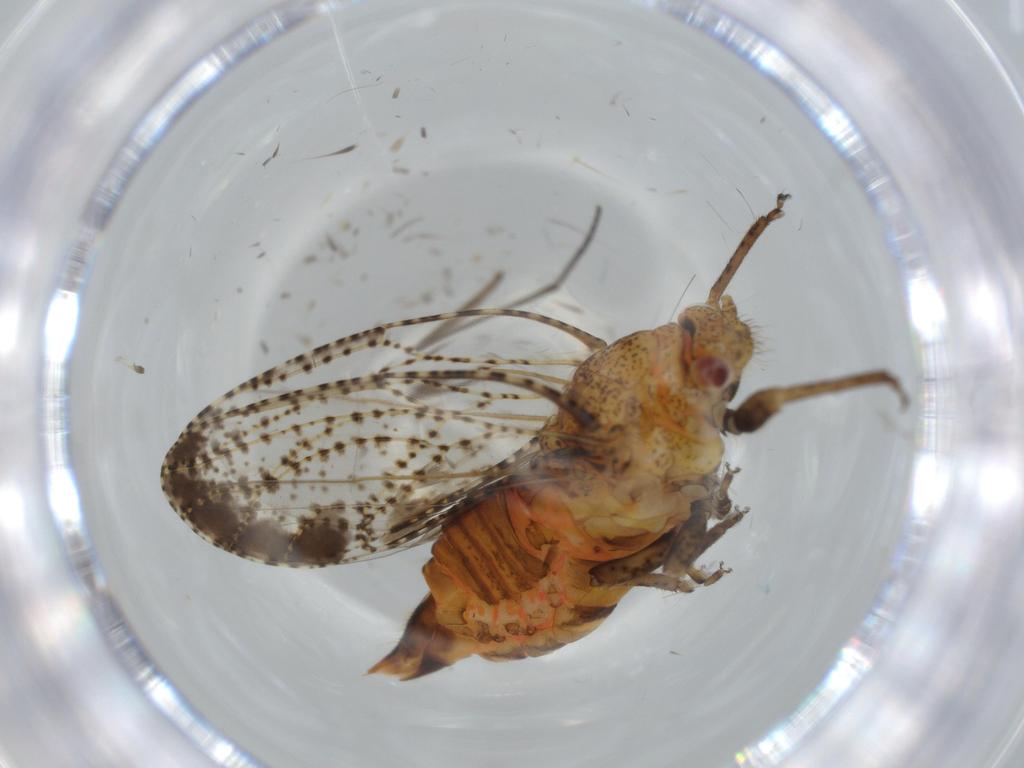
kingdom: Animalia
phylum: Arthropoda
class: Insecta
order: Hemiptera
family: Psyllidae
